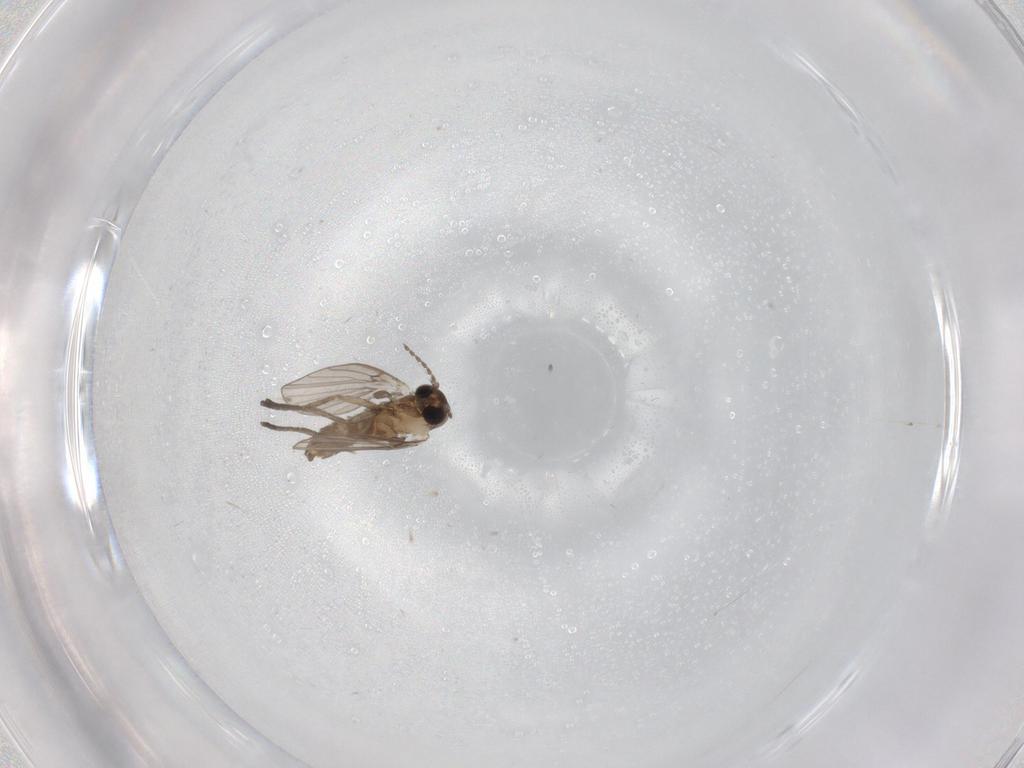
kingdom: Animalia
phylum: Arthropoda
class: Insecta
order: Diptera
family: Psychodidae
